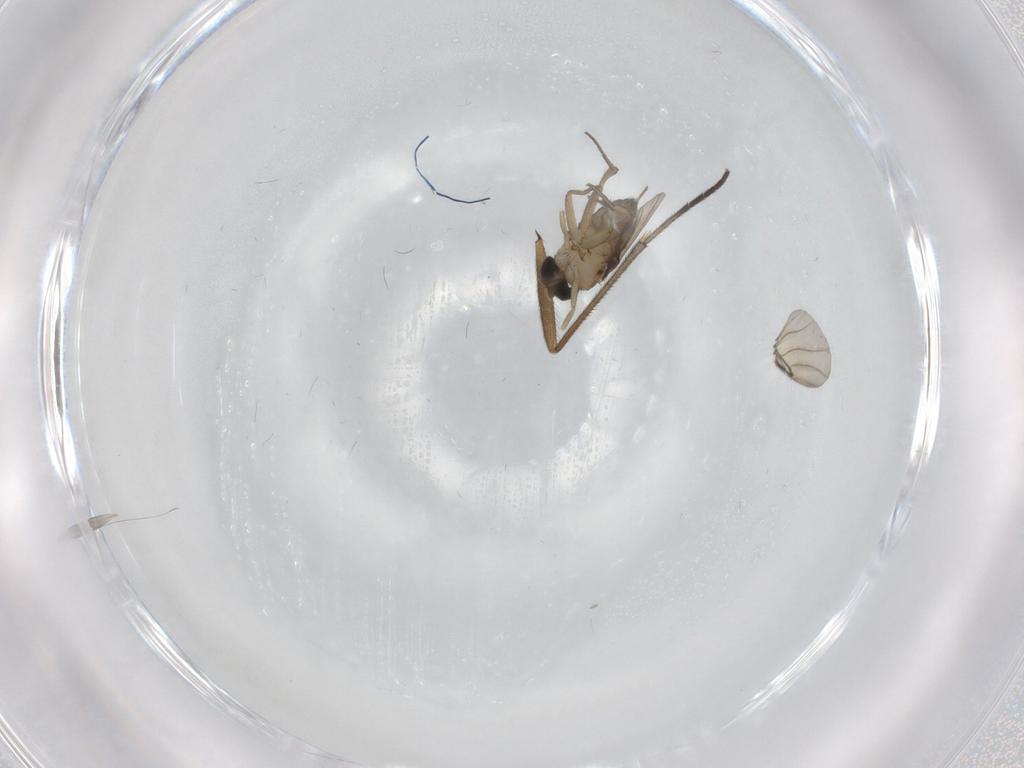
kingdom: Animalia
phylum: Arthropoda
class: Insecta
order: Diptera
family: Phoridae
